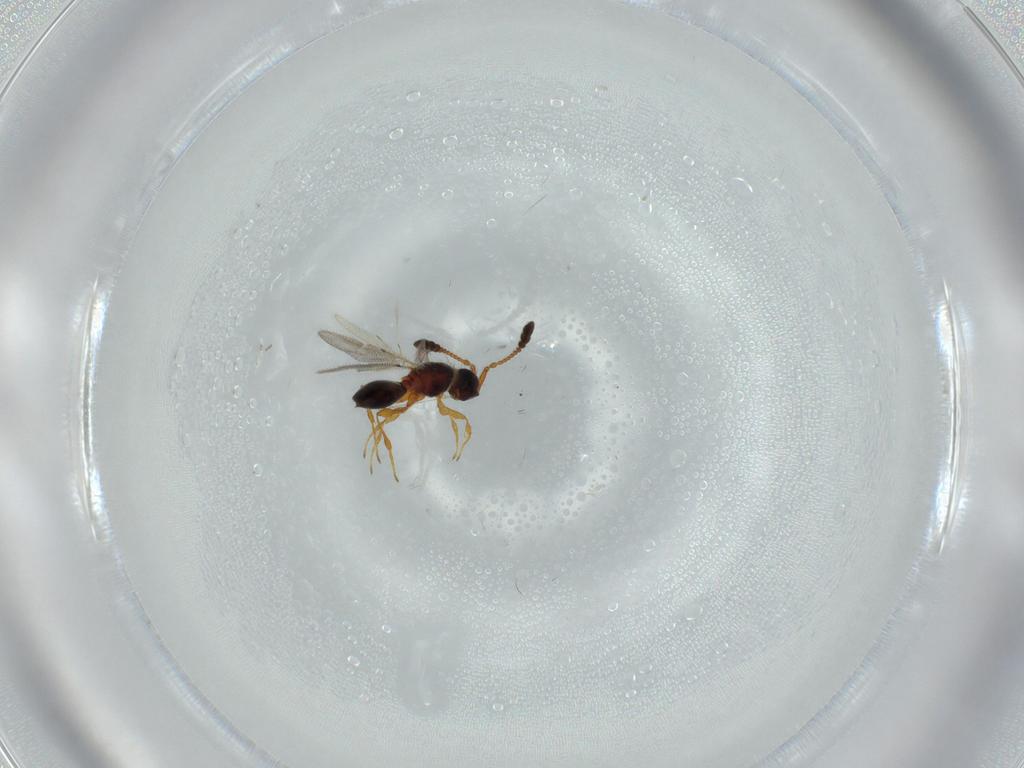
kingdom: Animalia
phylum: Arthropoda
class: Insecta
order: Hymenoptera
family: Diapriidae
